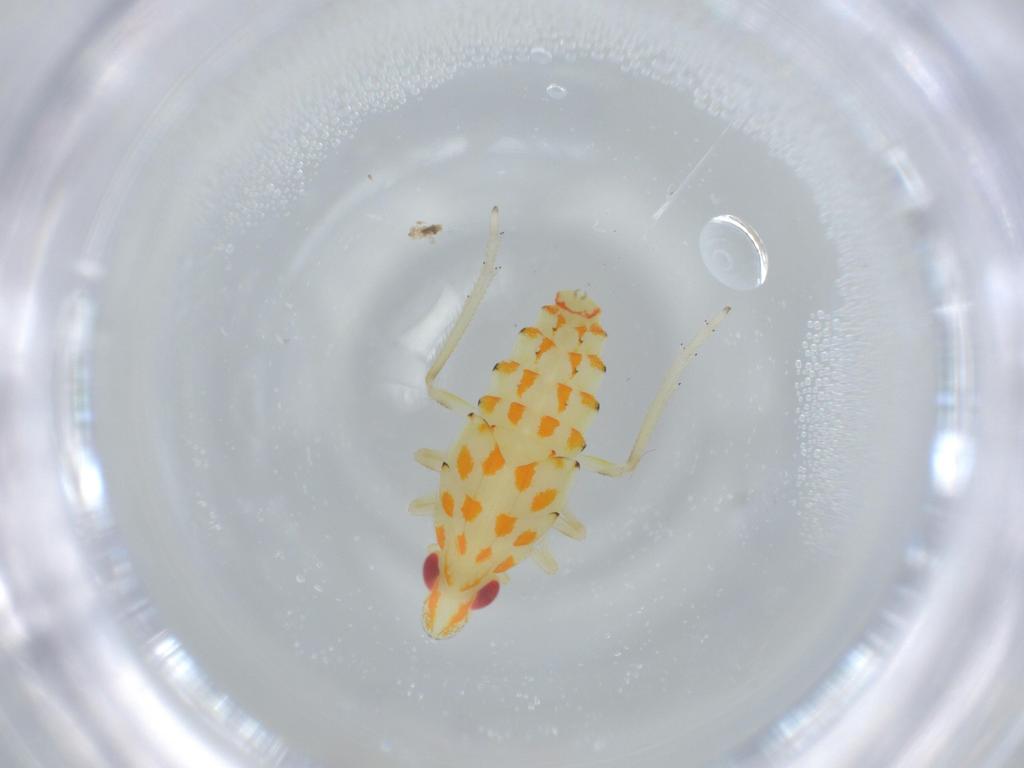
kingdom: Animalia
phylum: Arthropoda
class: Insecta
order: Hemiptera
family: Tropiduchidae
